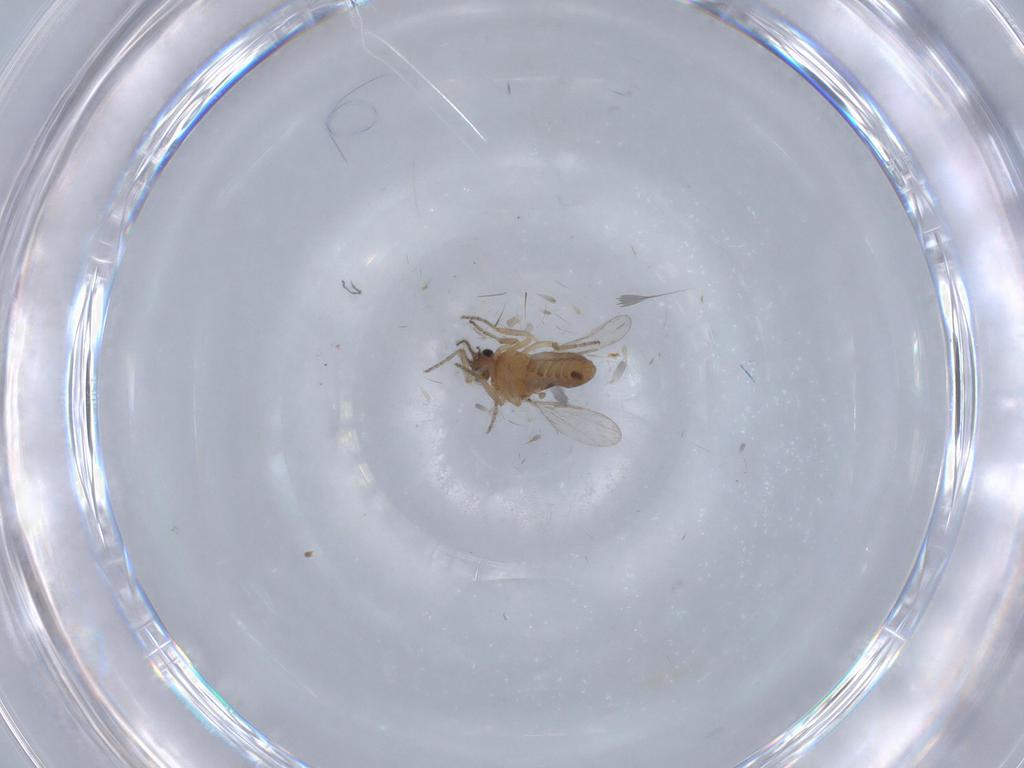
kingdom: Animalia
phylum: Arthropoda
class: Insecta
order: Diptera
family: Ceratopogonidae
